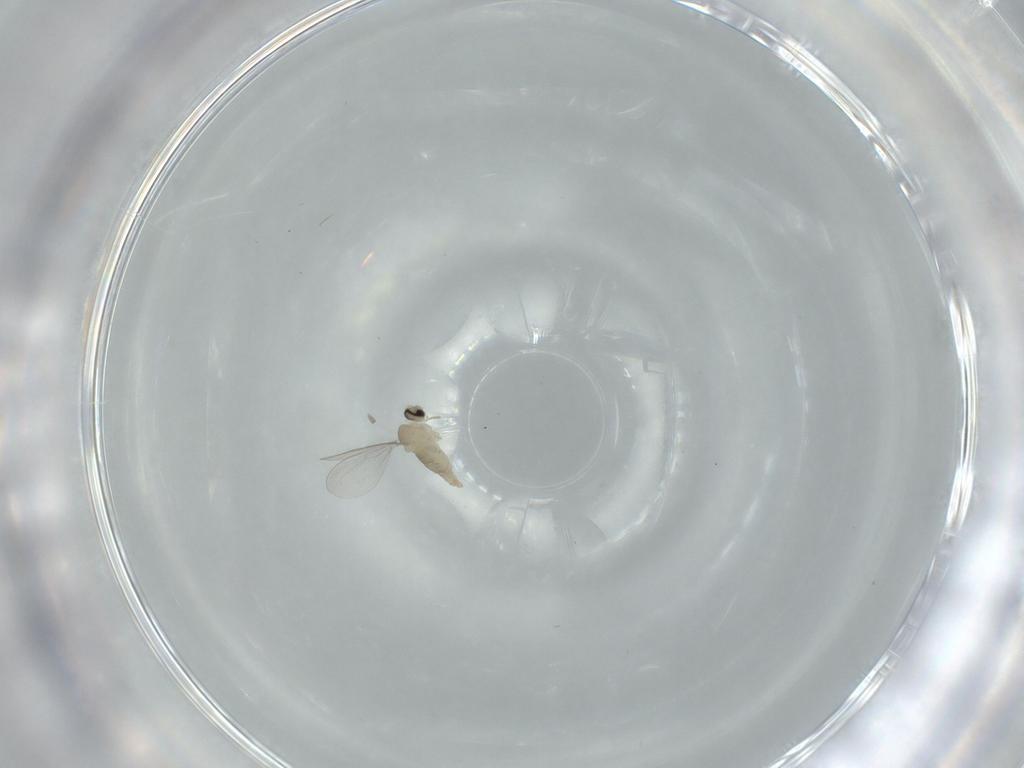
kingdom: Animalia
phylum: Arthropoda
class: Insecta
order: Diptera
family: Cecidomyiidae
